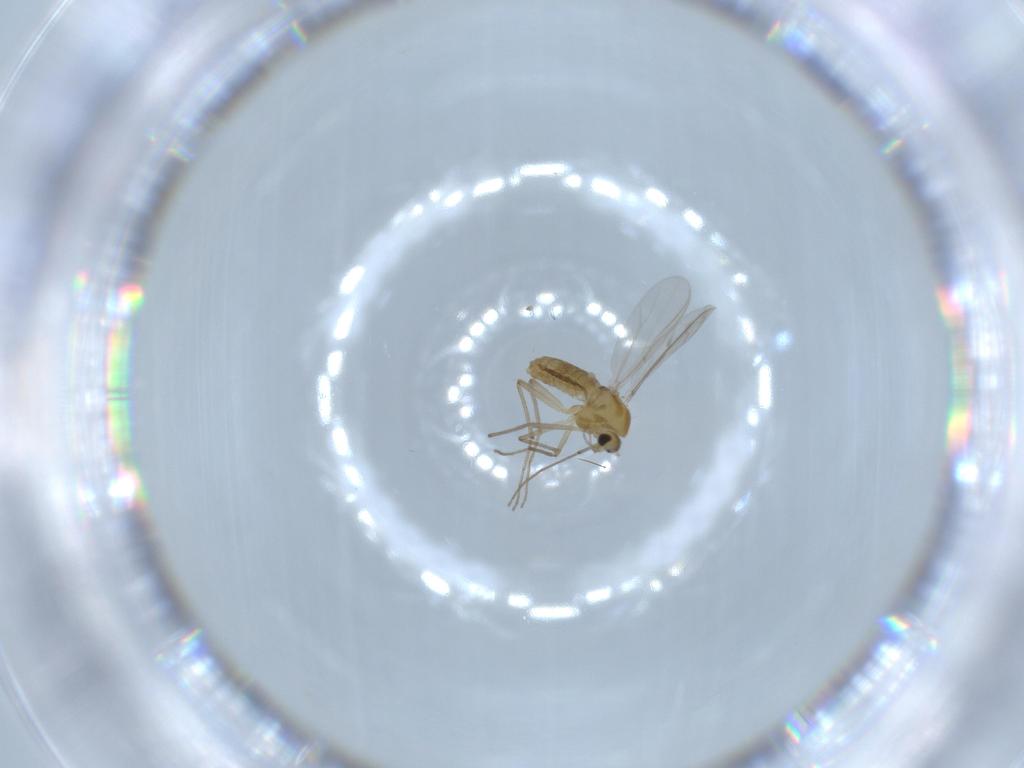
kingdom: Animalia
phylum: Arthropoda
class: Insecta
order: Diptera
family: Chironomidae
